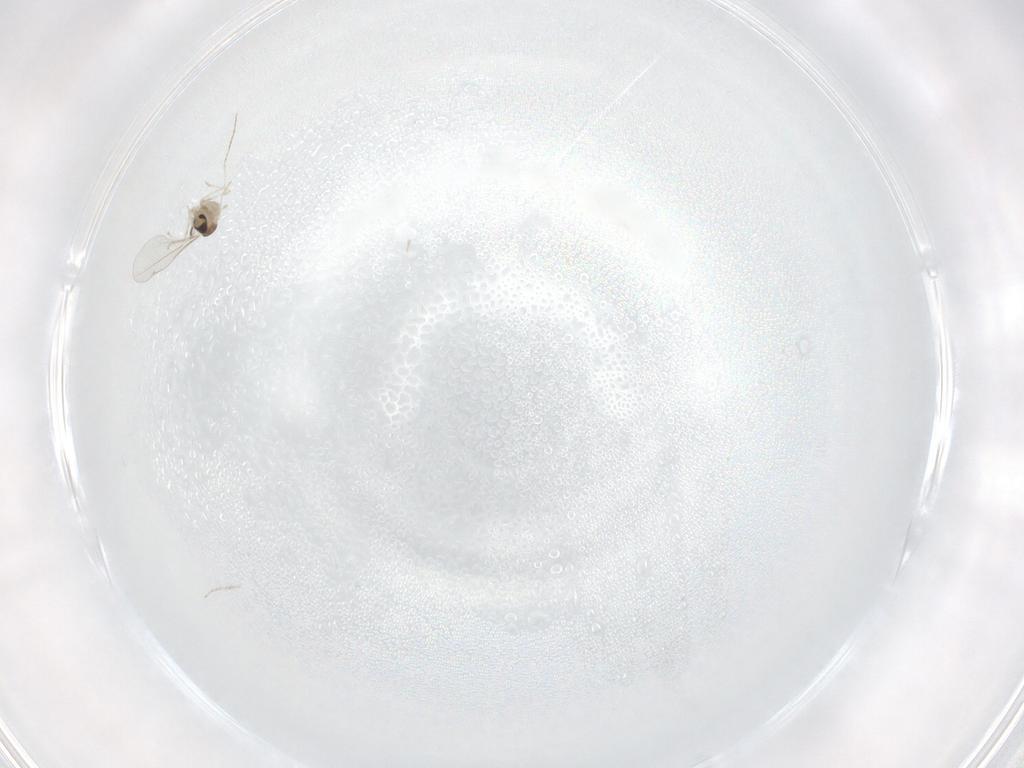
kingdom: Animalia
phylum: Arthropoda
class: Insecta
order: Diptera
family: Cecidomyiidae
